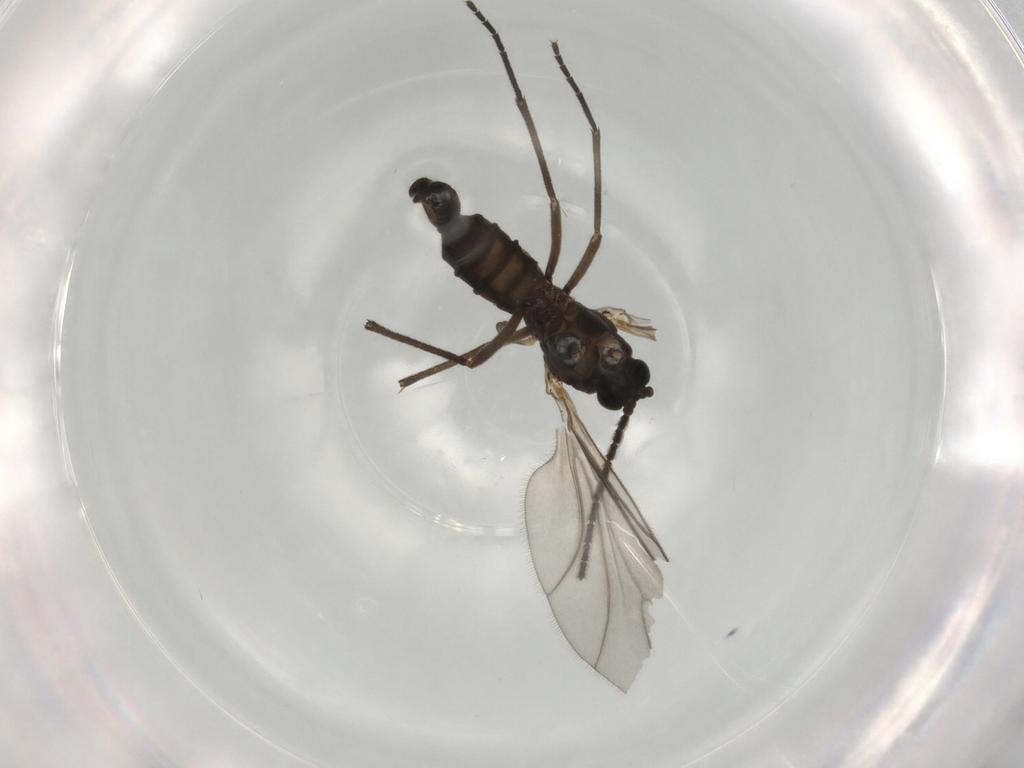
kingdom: Animalia
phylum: Arthropoda
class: Insecta
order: Diptera
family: Sciaridae
